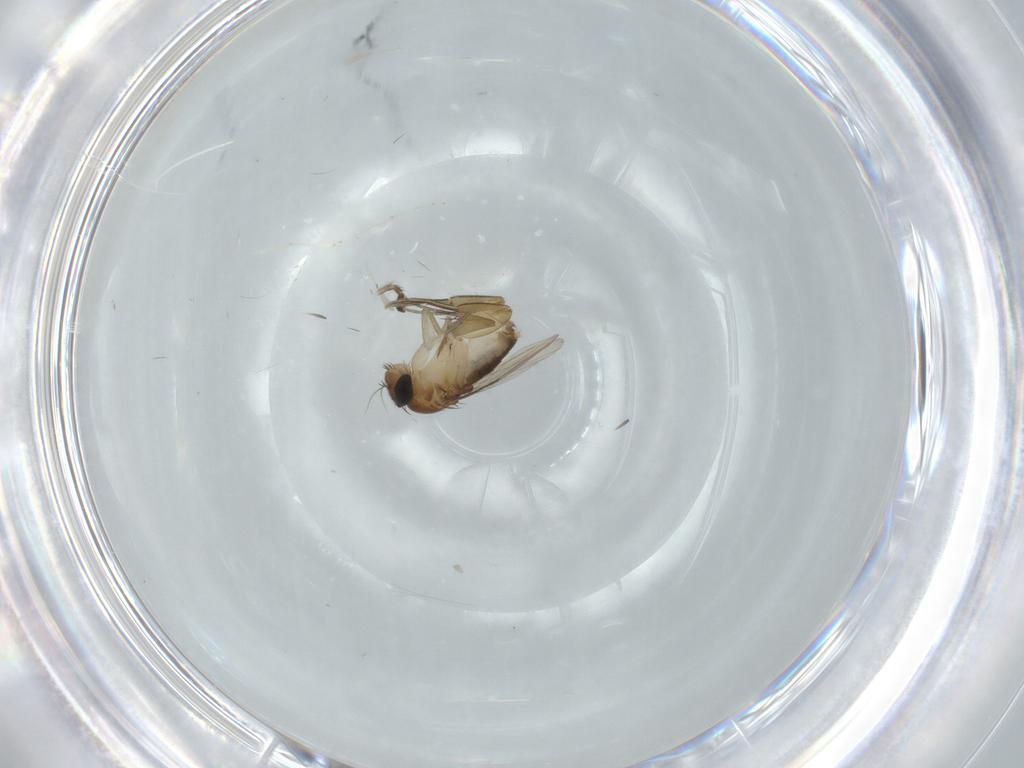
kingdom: Animalia
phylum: Arthropoda
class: Insecta
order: Diptera
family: Phoridae
